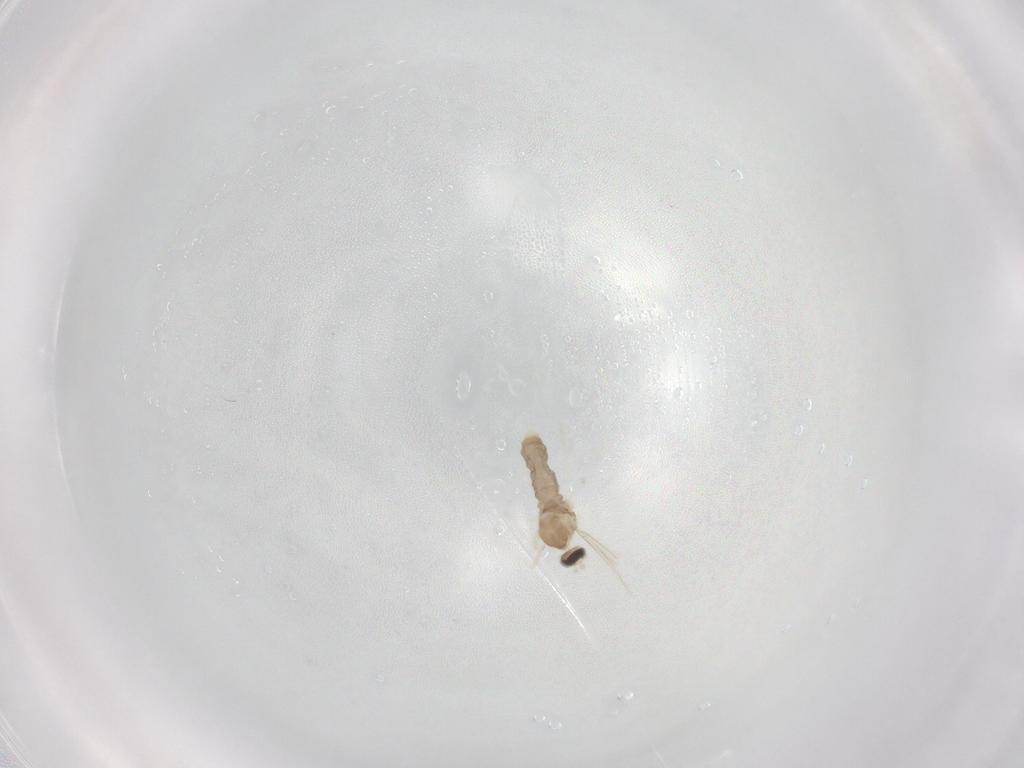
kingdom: Animalia
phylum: Arthropoda
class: Insecta
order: Diptera
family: Cecidomyiidae
